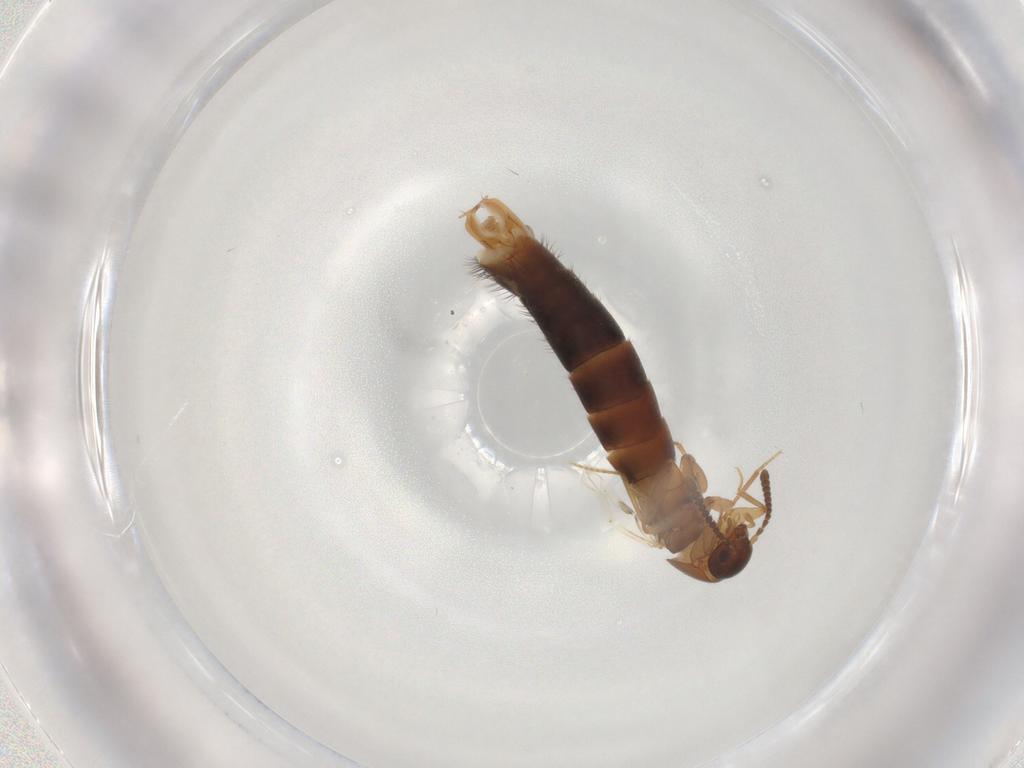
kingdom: Animalia
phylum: Arthropoda
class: Insecta
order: Coleoptera
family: Staphylinidae
